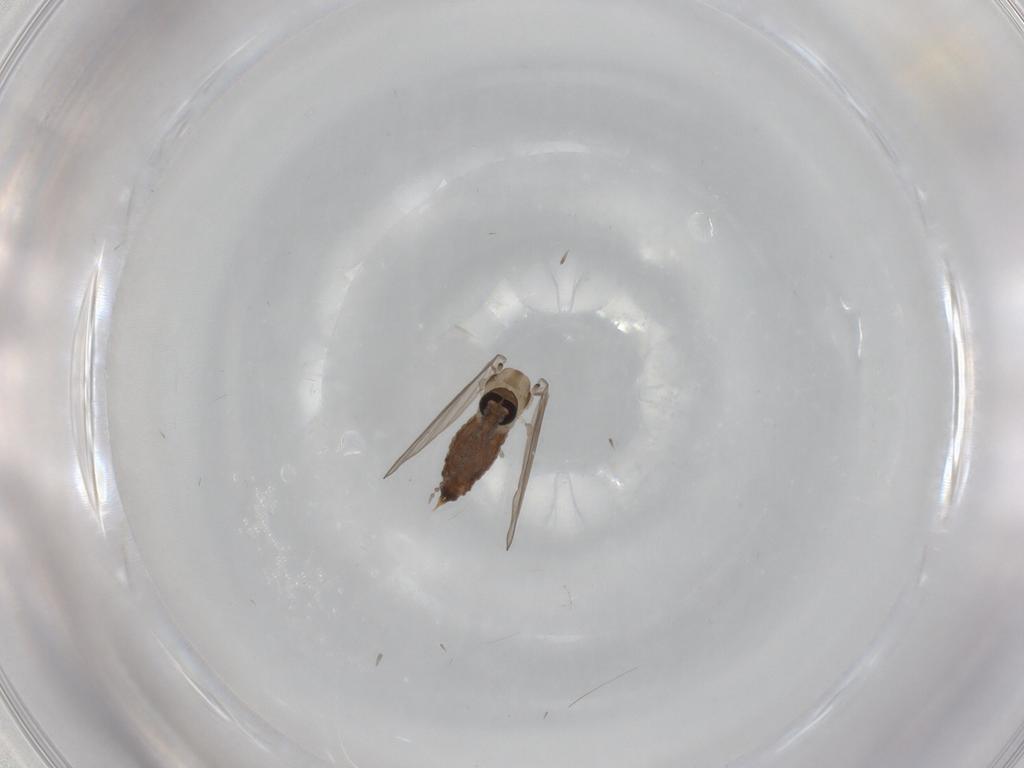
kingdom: Animalia
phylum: Arthropoda
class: Insecta
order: Diptera
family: Psychodidae
